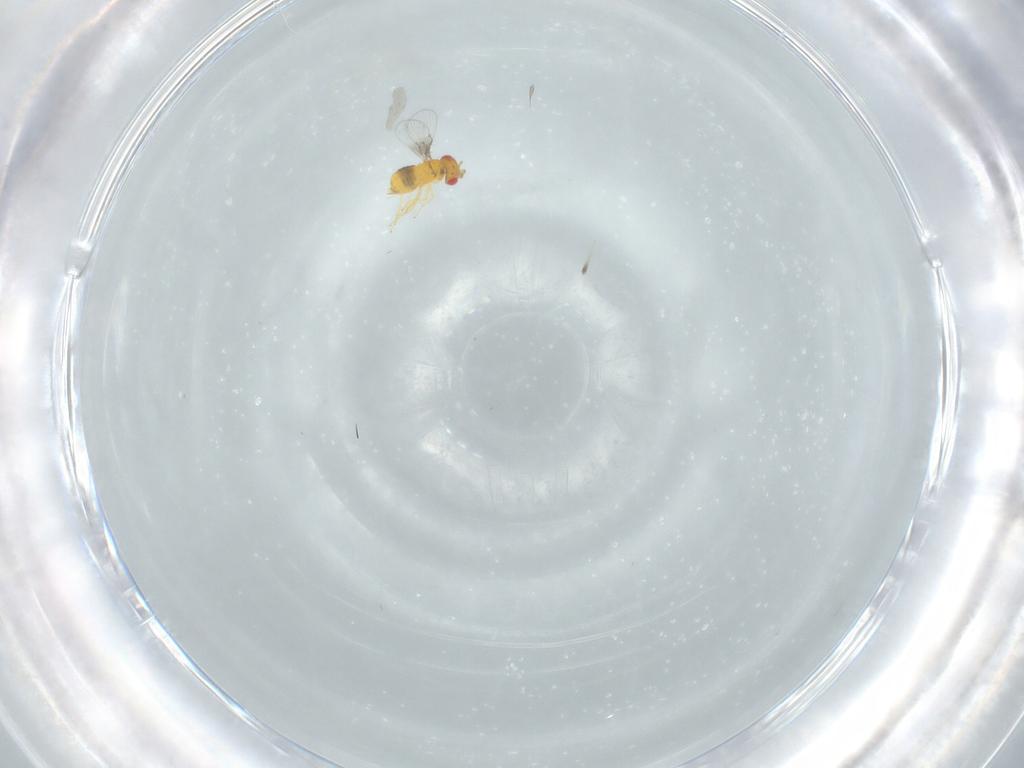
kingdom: Animalia
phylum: Arthropoda
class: Insecta
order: Hymenoptera
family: Trichogrammatidae
